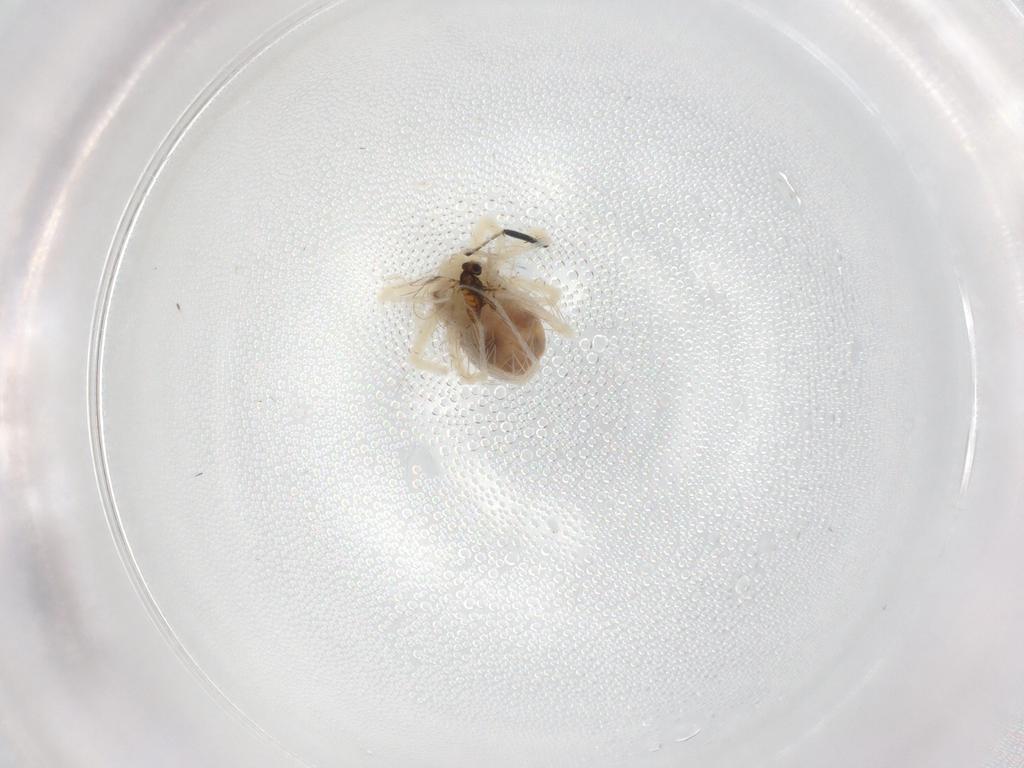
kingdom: Animalia
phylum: Arthropoda
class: Arachnida
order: Trombidiformes
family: Anystidae
